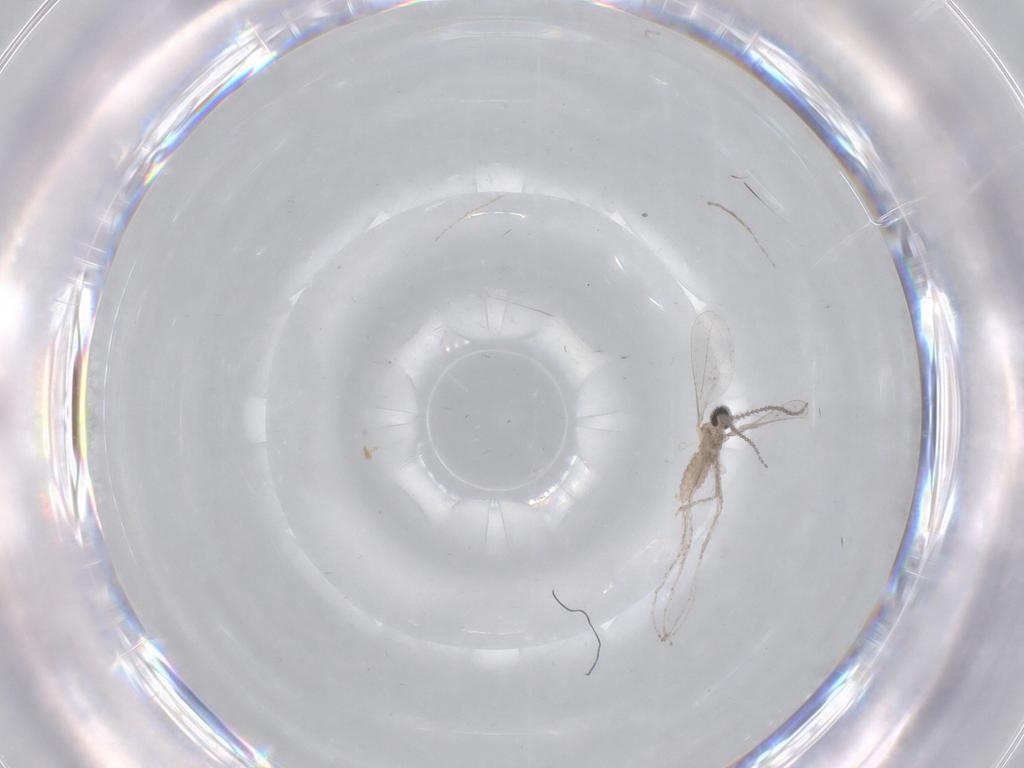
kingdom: Animalia
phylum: Arthropoda
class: Insecta
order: Diptera
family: Cecidomyiidae
